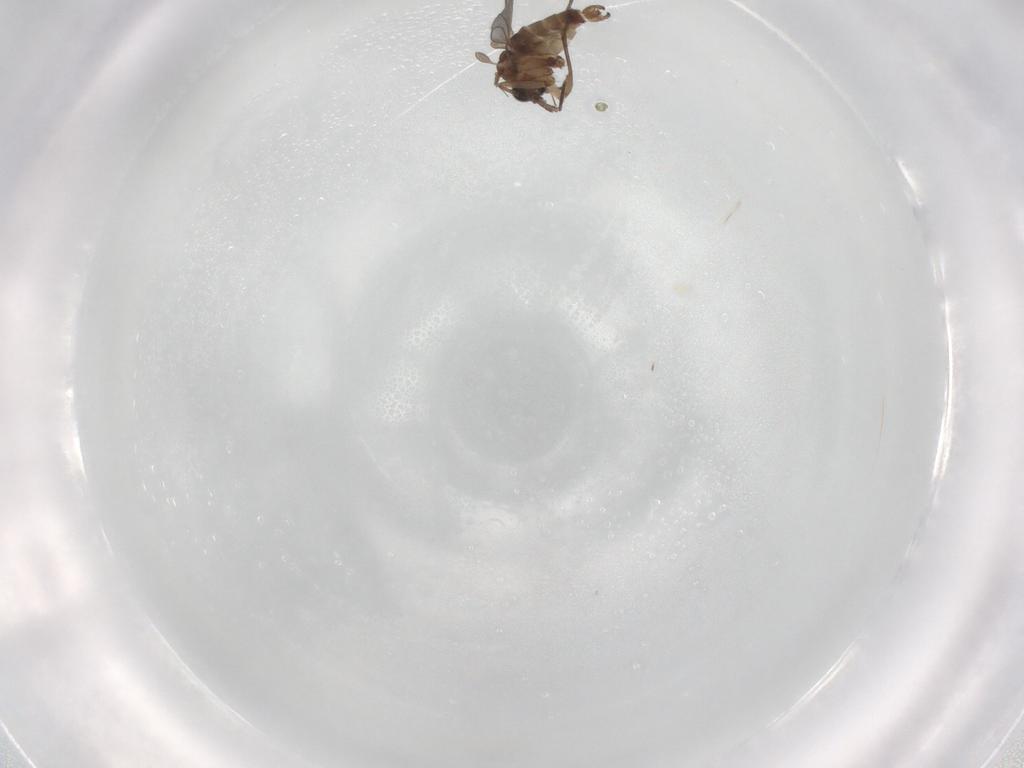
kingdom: Animalia
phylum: Arthropoda
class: Insecta
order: Diptera
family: Sciaridae
